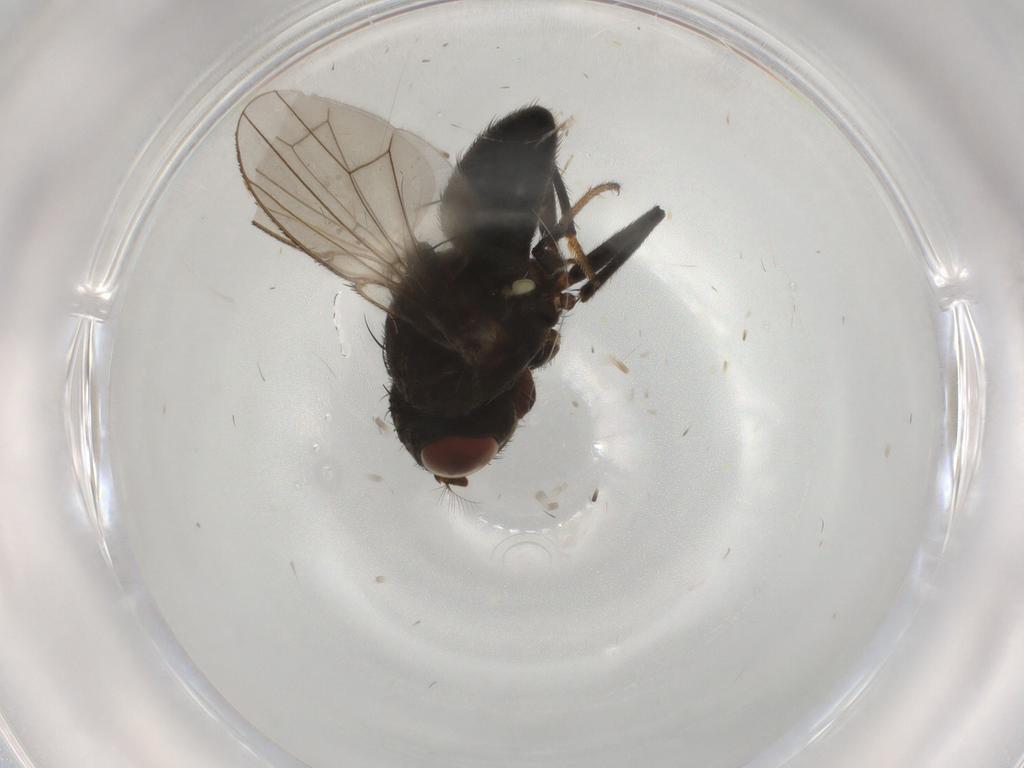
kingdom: Animalia
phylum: Arthropoda
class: Insecta
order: Diptera
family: Ephydridae
